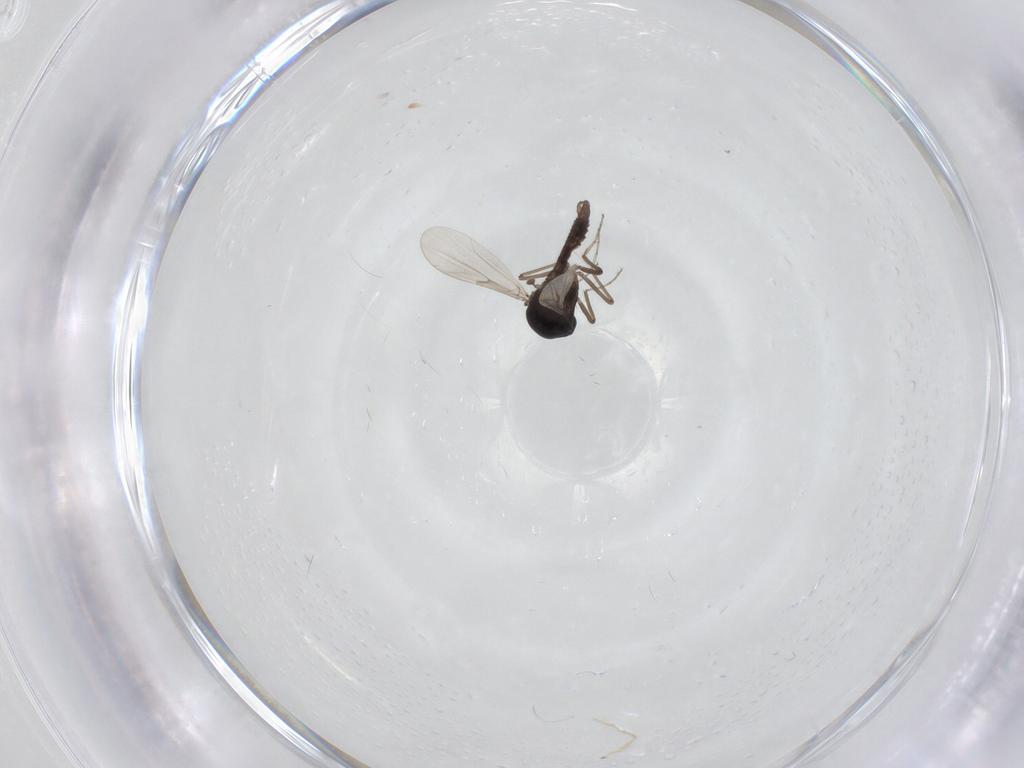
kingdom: Animalia
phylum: Arthropoda
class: Insecta
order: Diptera
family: Ceratopogonidae
